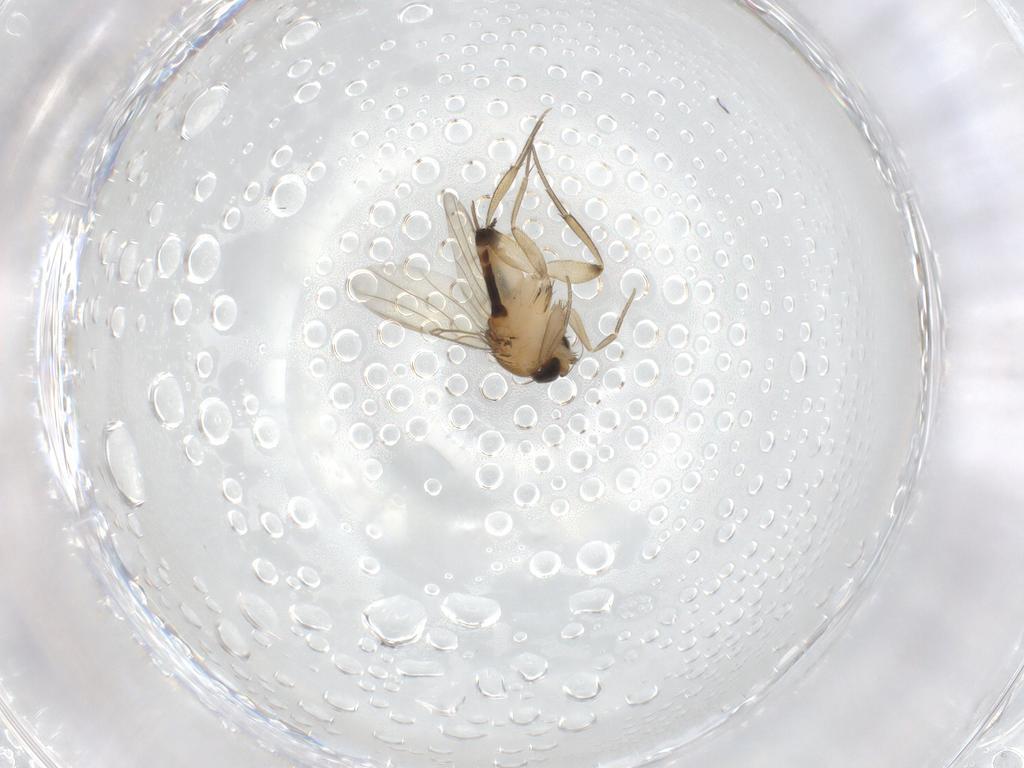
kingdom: Animalia
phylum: Arthropoda
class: Insecta
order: Diptera
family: Phoridae
